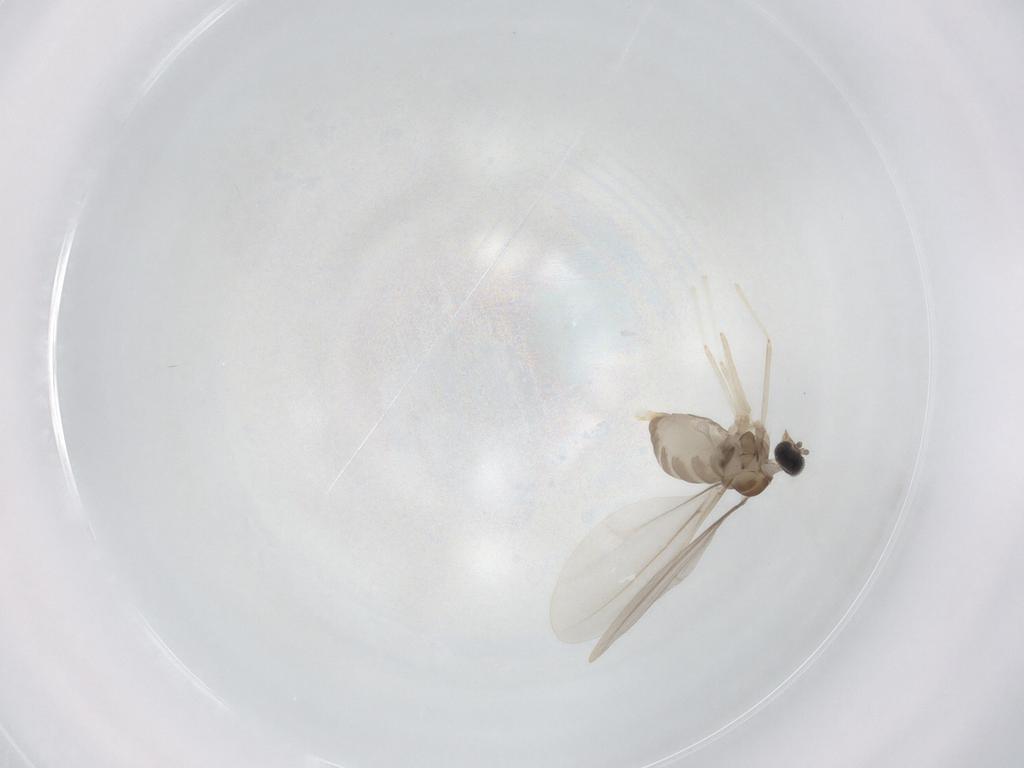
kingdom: Animalia
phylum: Arthropoda
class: Insecta
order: Diptera
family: Cecidomyiidae
